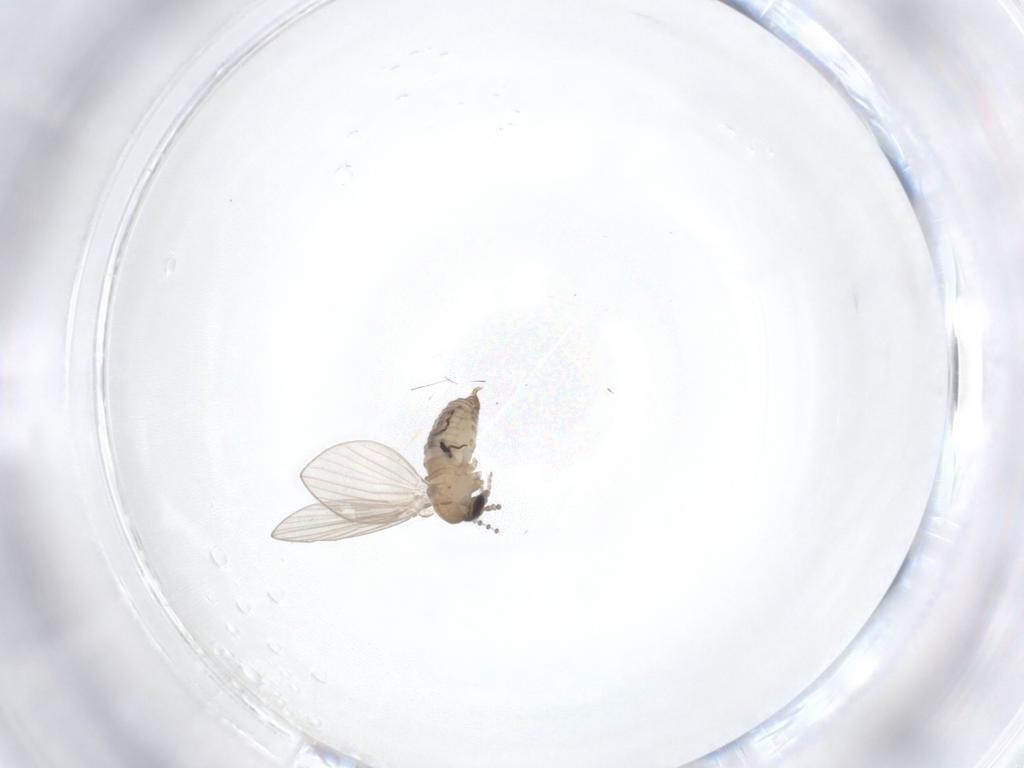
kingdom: Animalia
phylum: Arthropoda
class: Insecta
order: Diptera
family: Psychodidae
